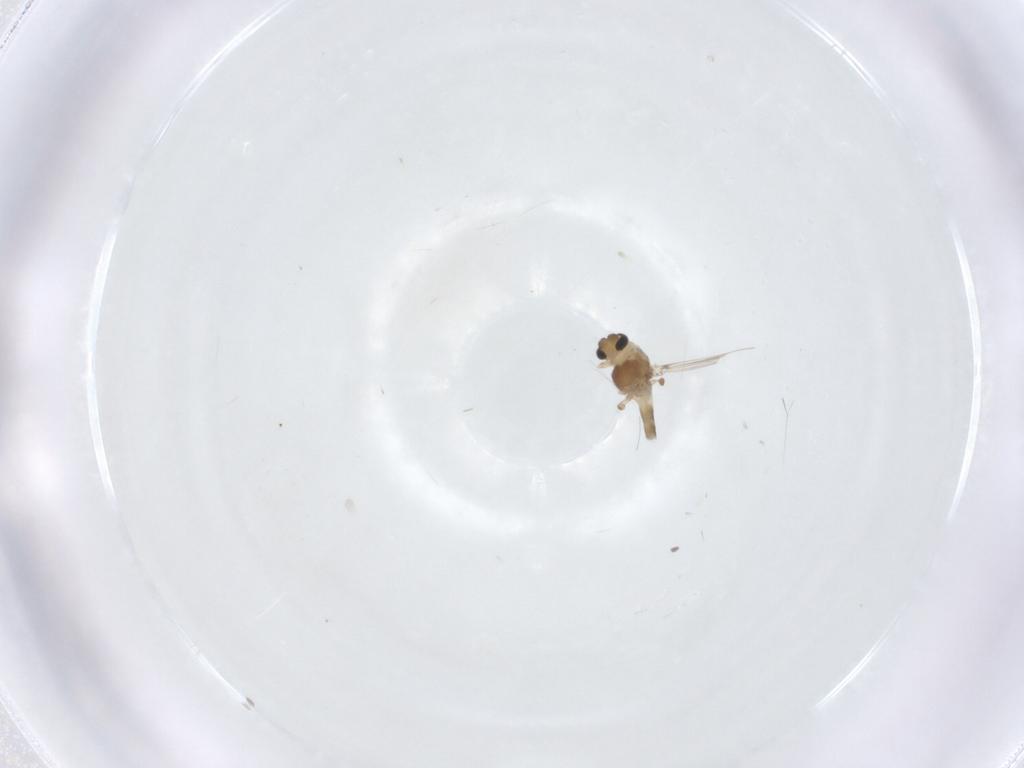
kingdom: Animalia
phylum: Arthropoda
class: Insecta
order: Diptera
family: Chironomidae
